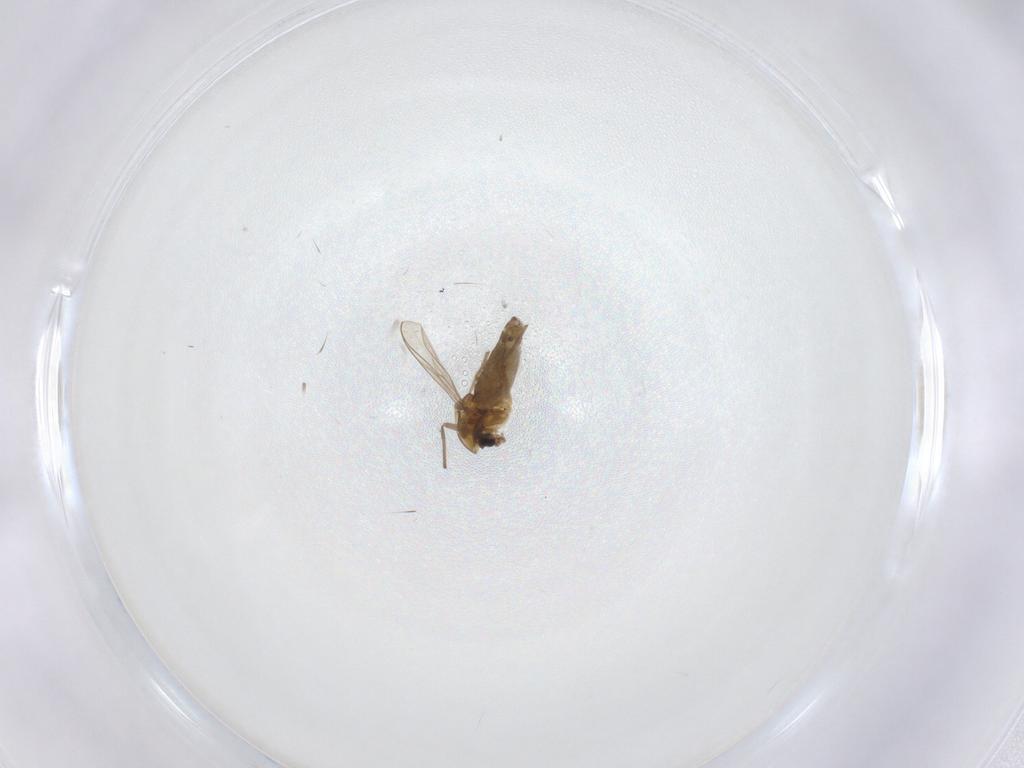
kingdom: Animalia
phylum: Arthropoda
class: Insecta
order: Diptera
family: Chironomidae
